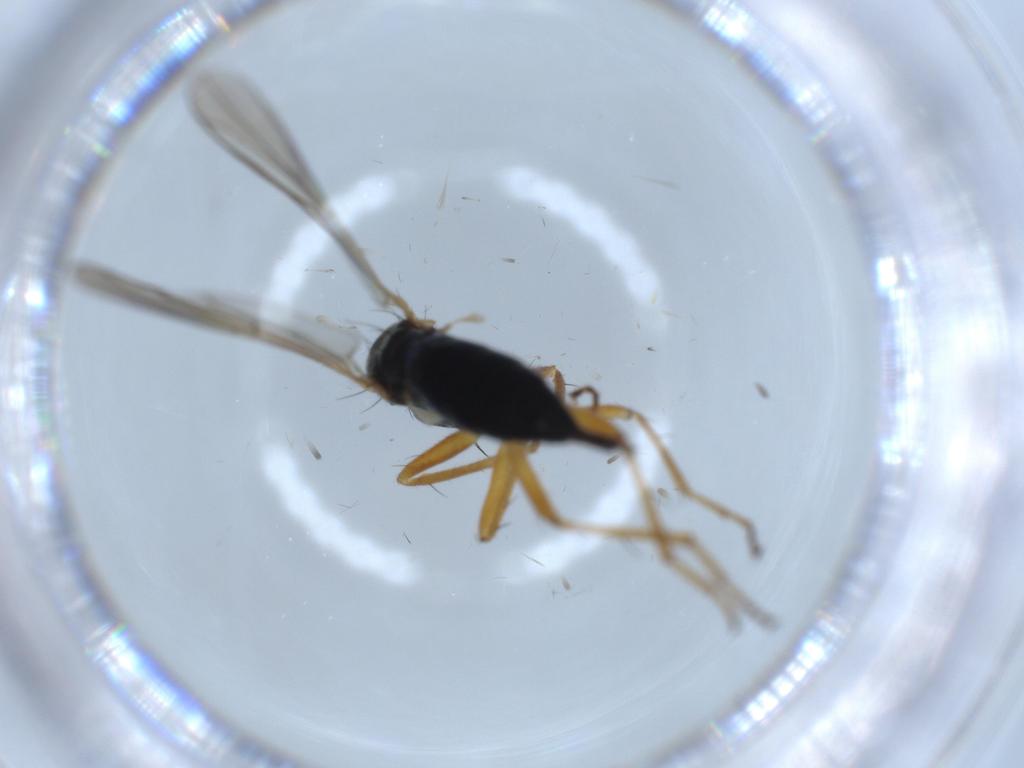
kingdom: Animalia
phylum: Arthropoda
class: Insecta
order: Diptera
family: Hybotidae
